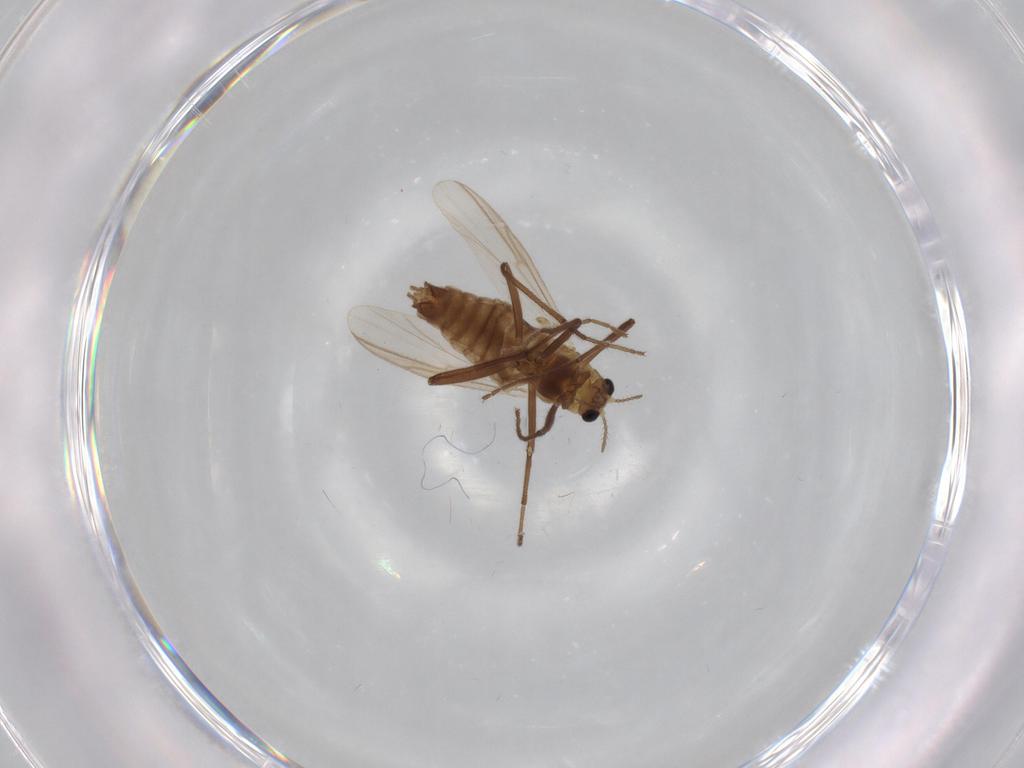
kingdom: Animalia
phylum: Arthropoda
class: Insecta
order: Diptera
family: Chironomidae
